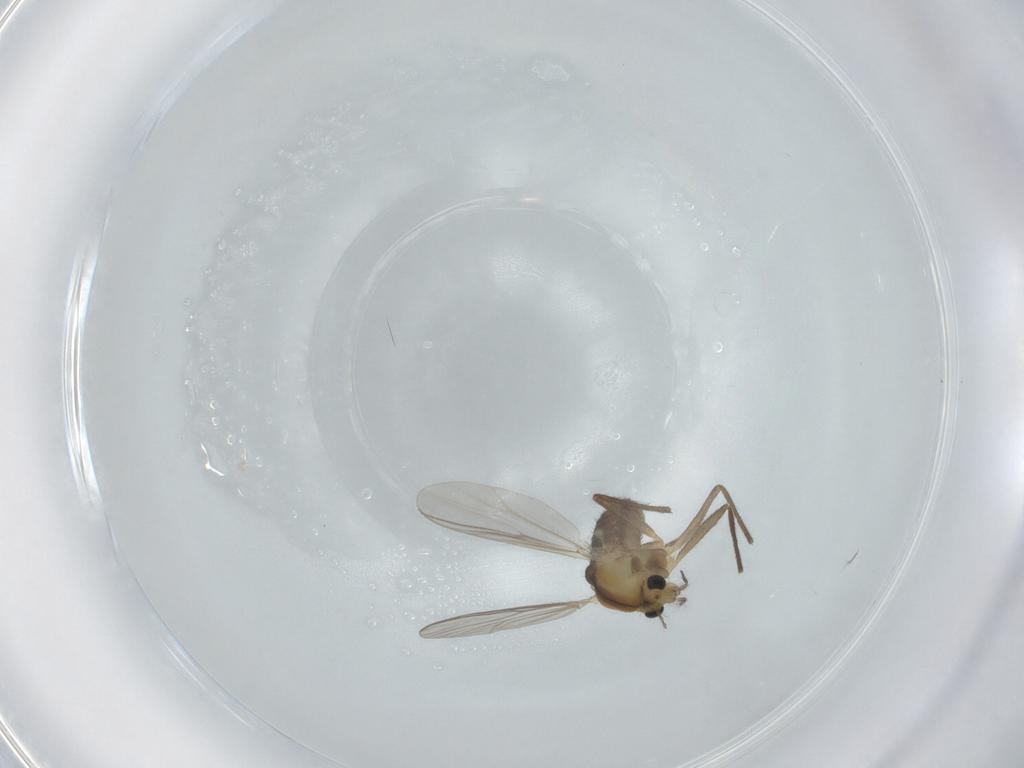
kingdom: Animalia
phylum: Arthropoda
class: Insecta
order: Diptera
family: Chironomidae
